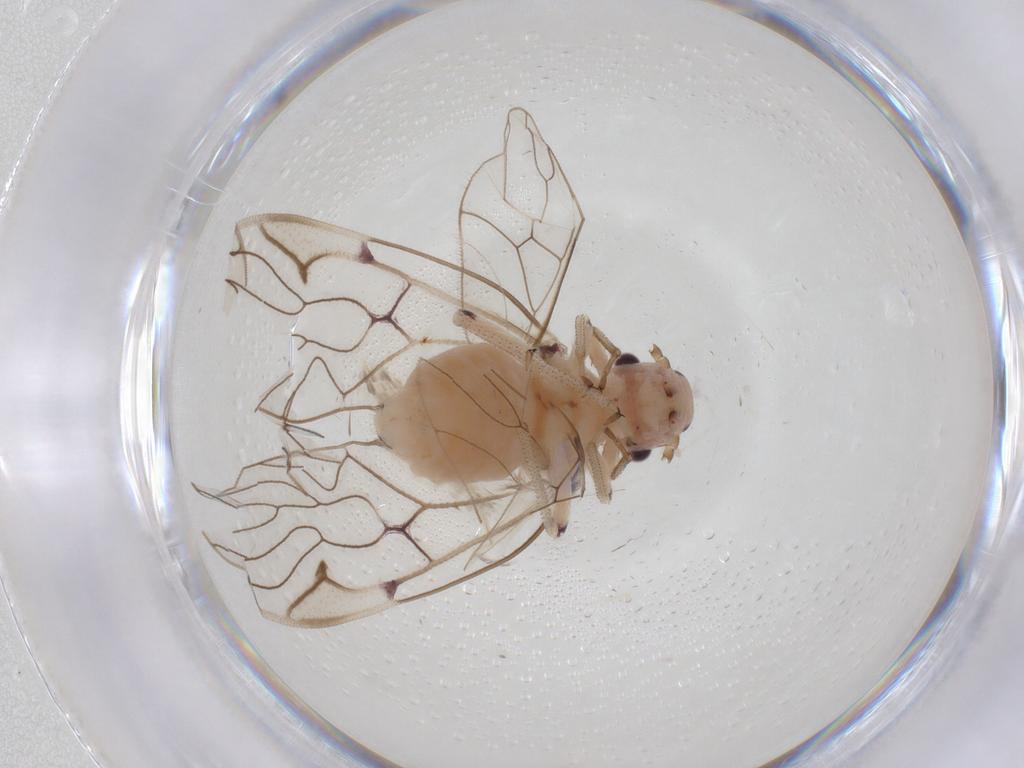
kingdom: Animalia
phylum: Arthropoda
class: Insecta
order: Psocodea
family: Amphipsocidae
